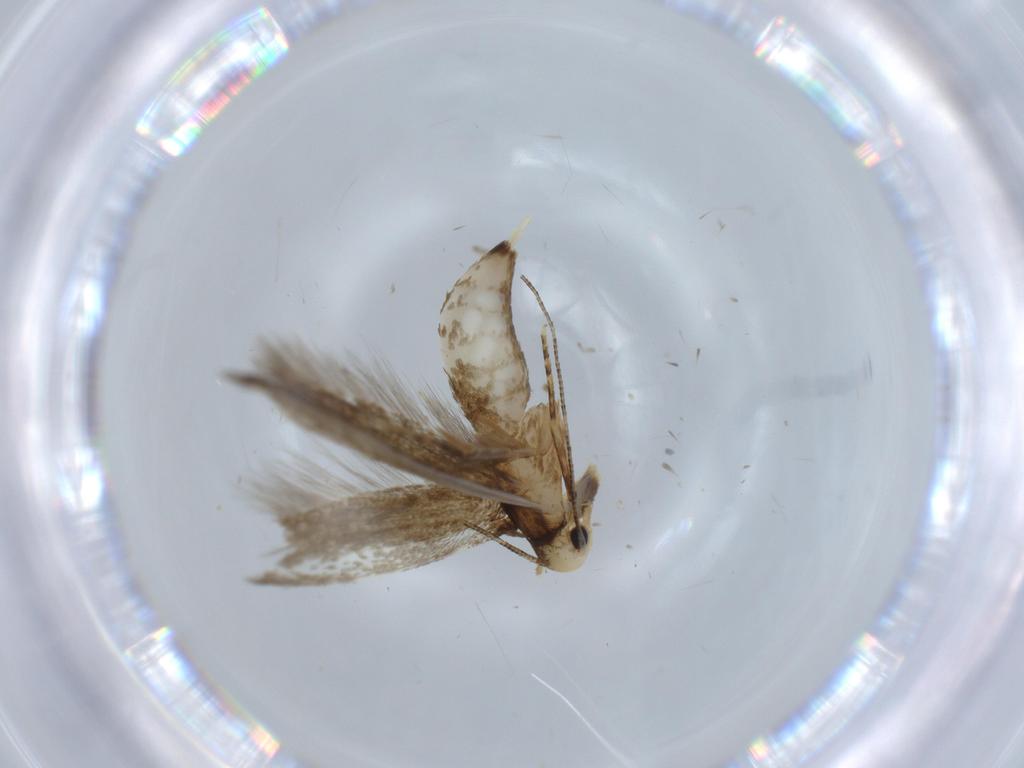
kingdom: Animalia
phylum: Arthropoda
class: Insecta
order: Lepidoptera
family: Tineidae
